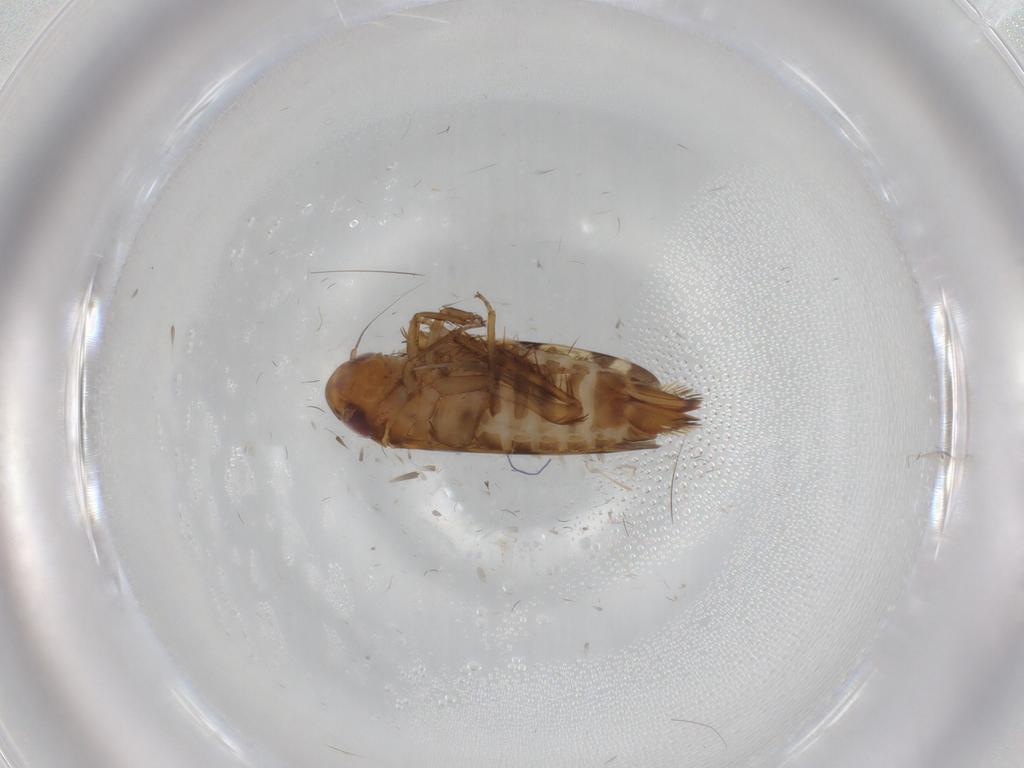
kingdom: Animalia
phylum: Arthropoda
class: Insecta
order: Hemiptera
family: Cicadellidae
